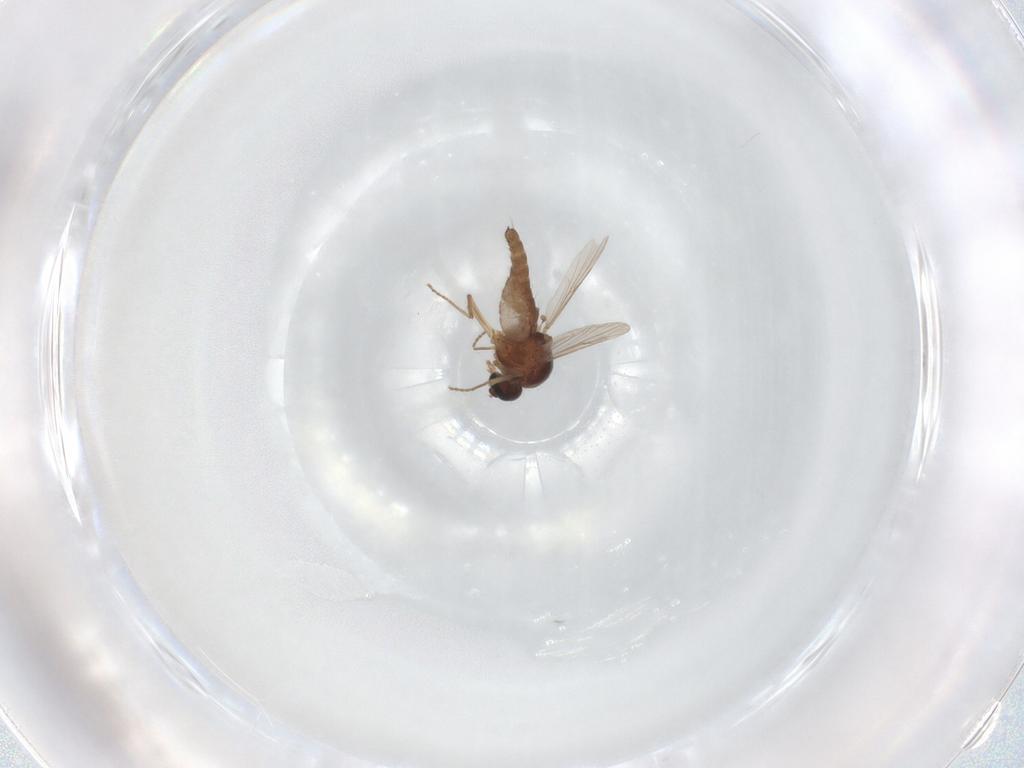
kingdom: Animalia
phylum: Arthropoda
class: Insecta
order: Diptera
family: Ceratopogonidae
